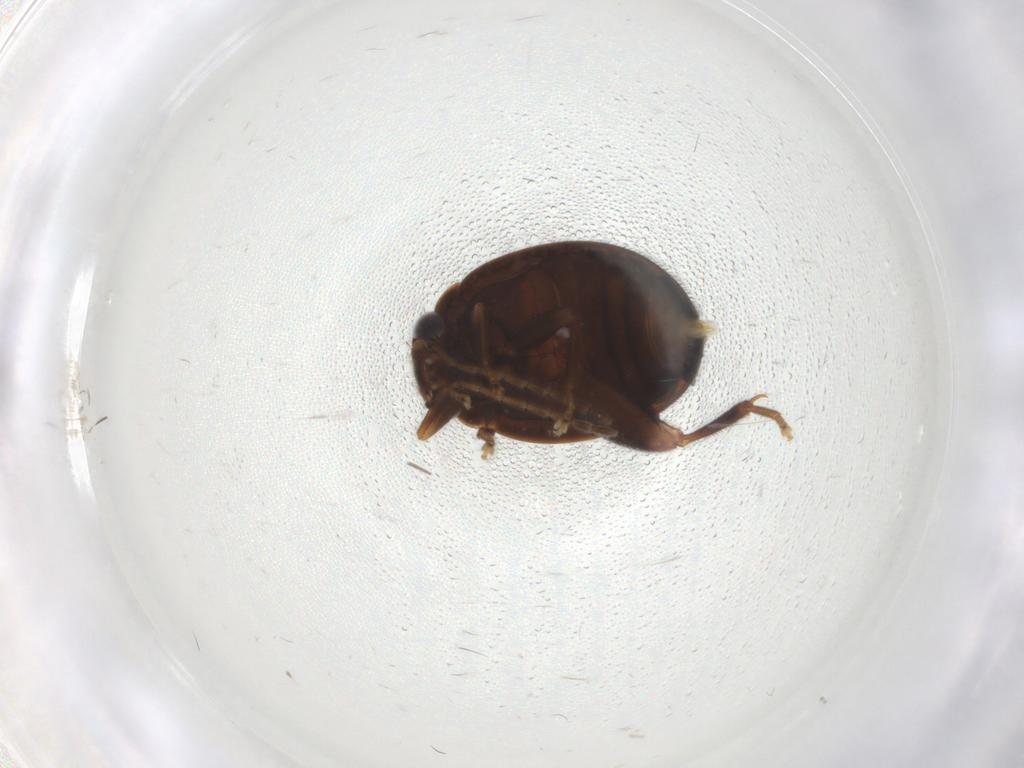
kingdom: Animalia
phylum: Arthropoda
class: Insecta
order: Coleoptera
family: Scirtidae
